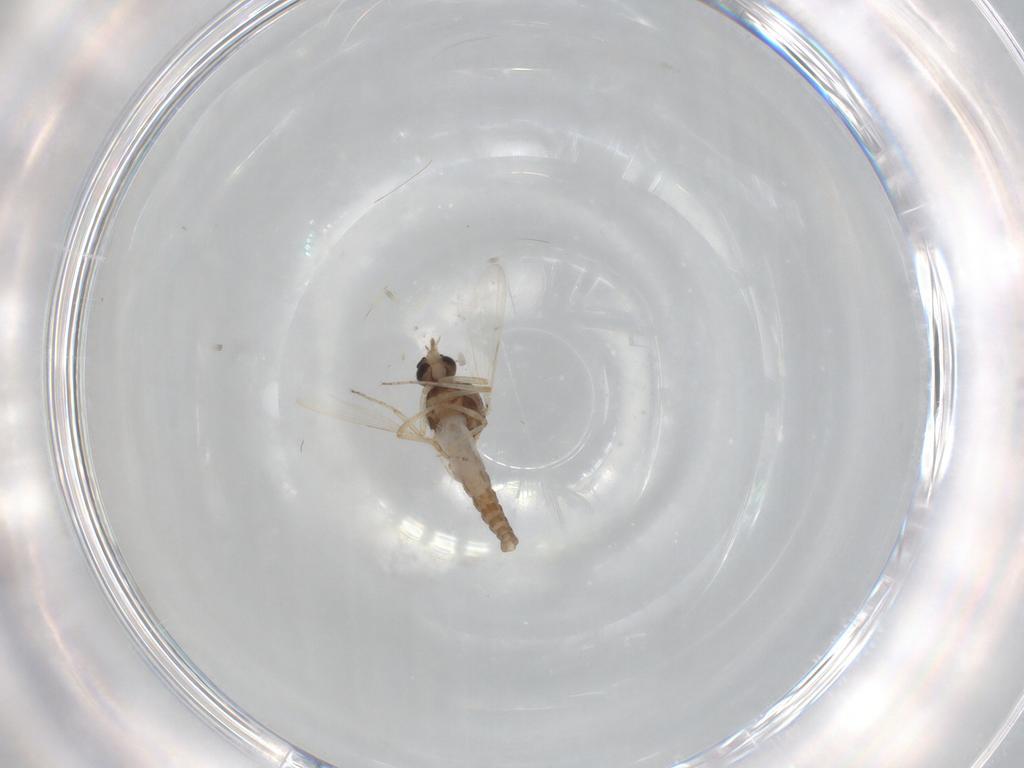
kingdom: Animalia
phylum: Arthropoda
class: Insecta
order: Diptera
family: Ceratopogonidae
